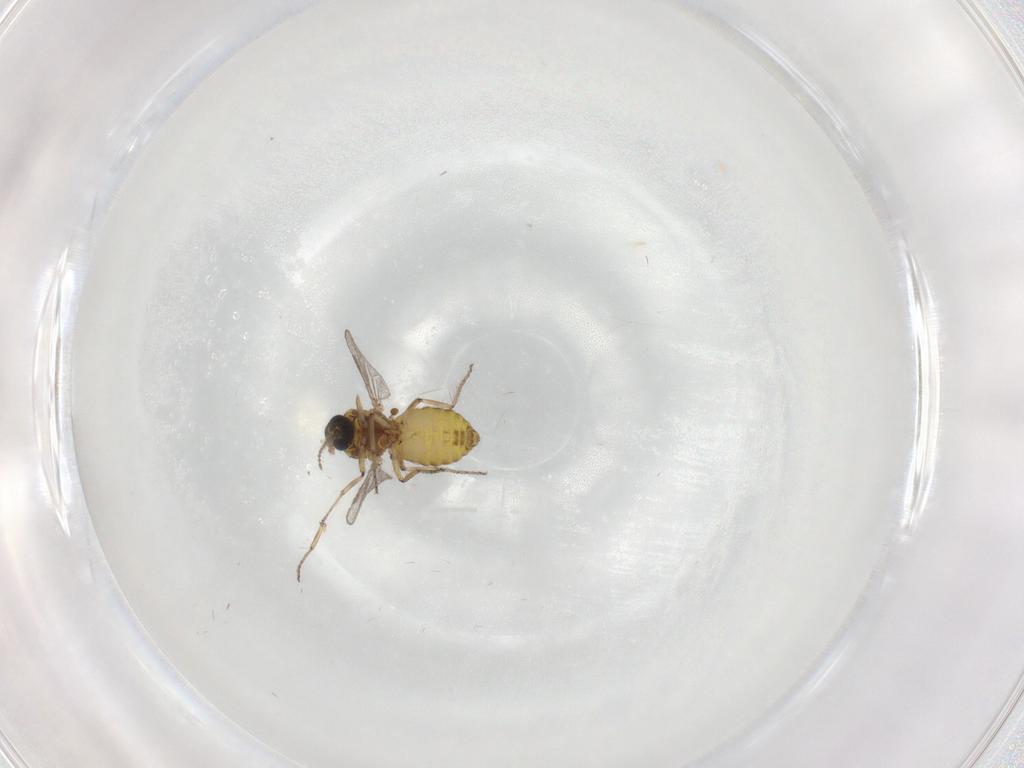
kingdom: Animalia
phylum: Arthropoda
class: Insecta
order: Diptera
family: Ceratopogonidae
